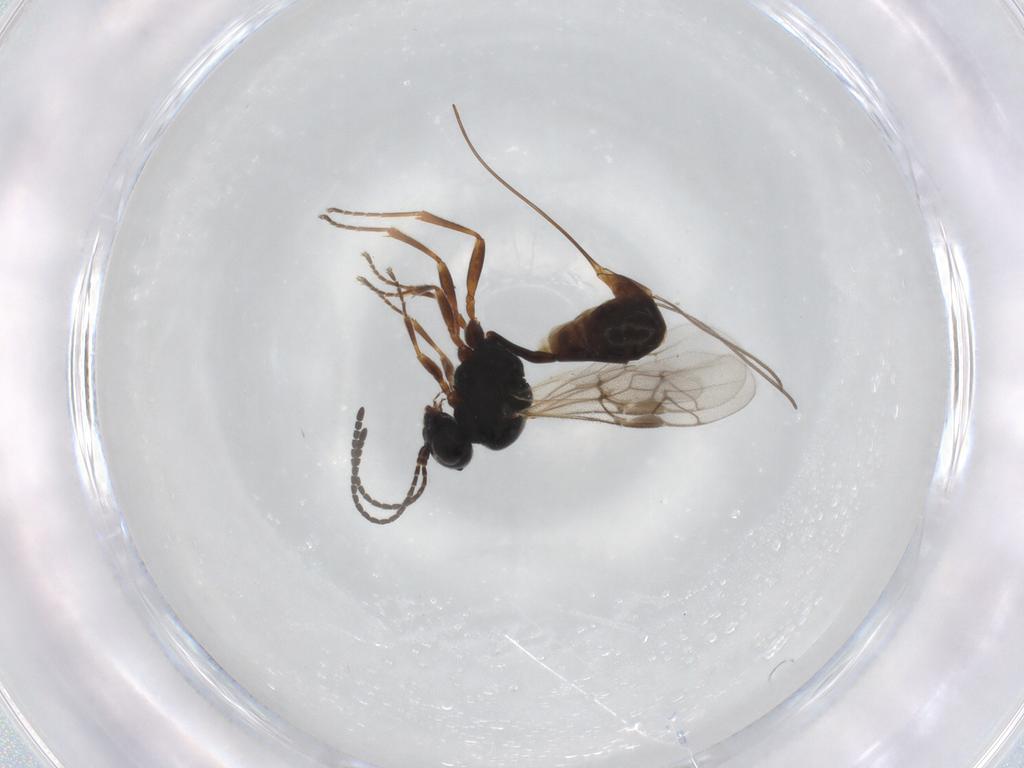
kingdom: Animalia
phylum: Arthropoda
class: Insecta
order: Hymenoptera
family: Ichneumonidae
